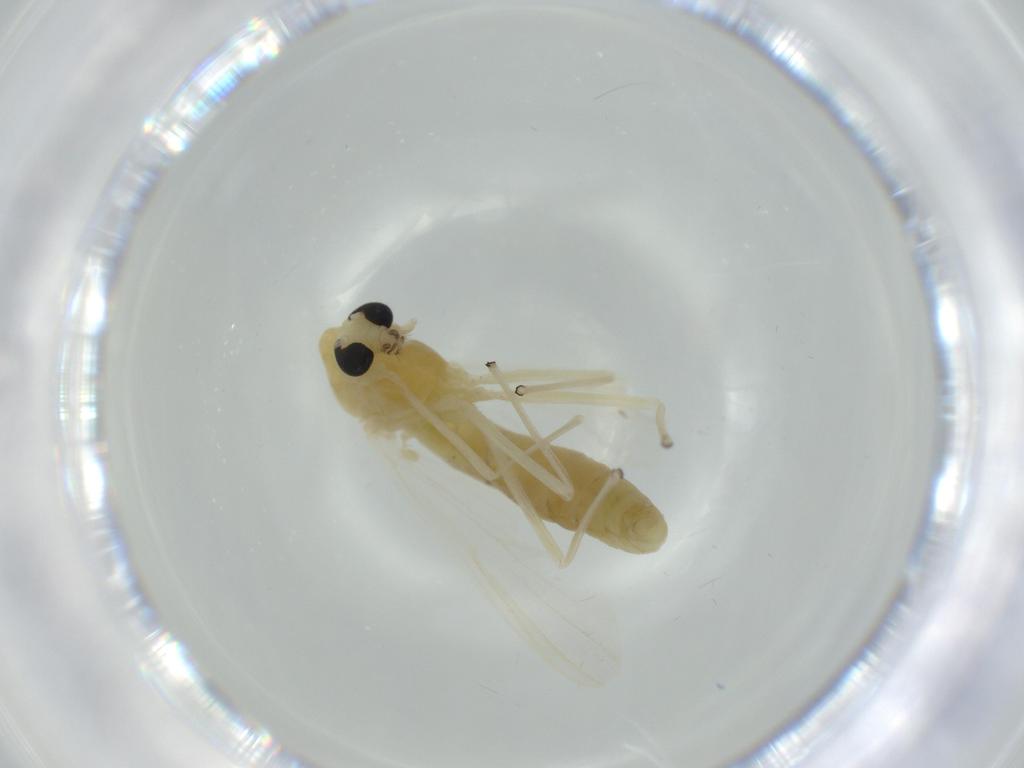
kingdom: Animalia
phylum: Arthropoda
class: Insecta
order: Diptera
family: Chironomidae
